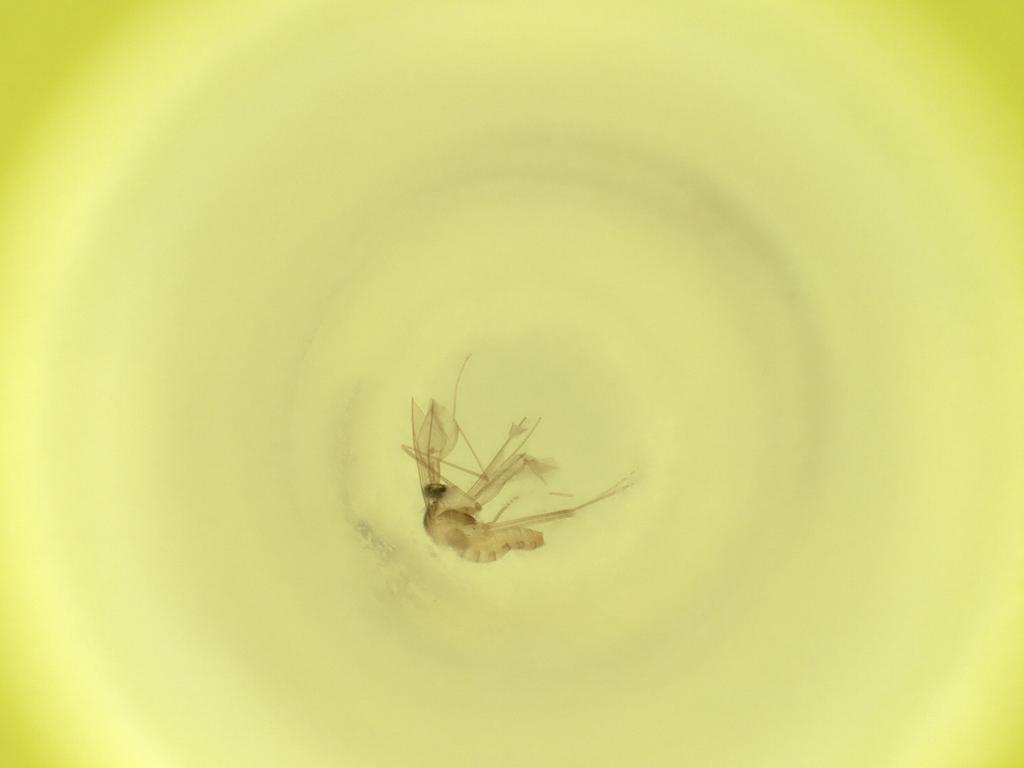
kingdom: Animalia
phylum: Arthropoda
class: Insecta
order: Diptera
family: Cecidomyiidae
